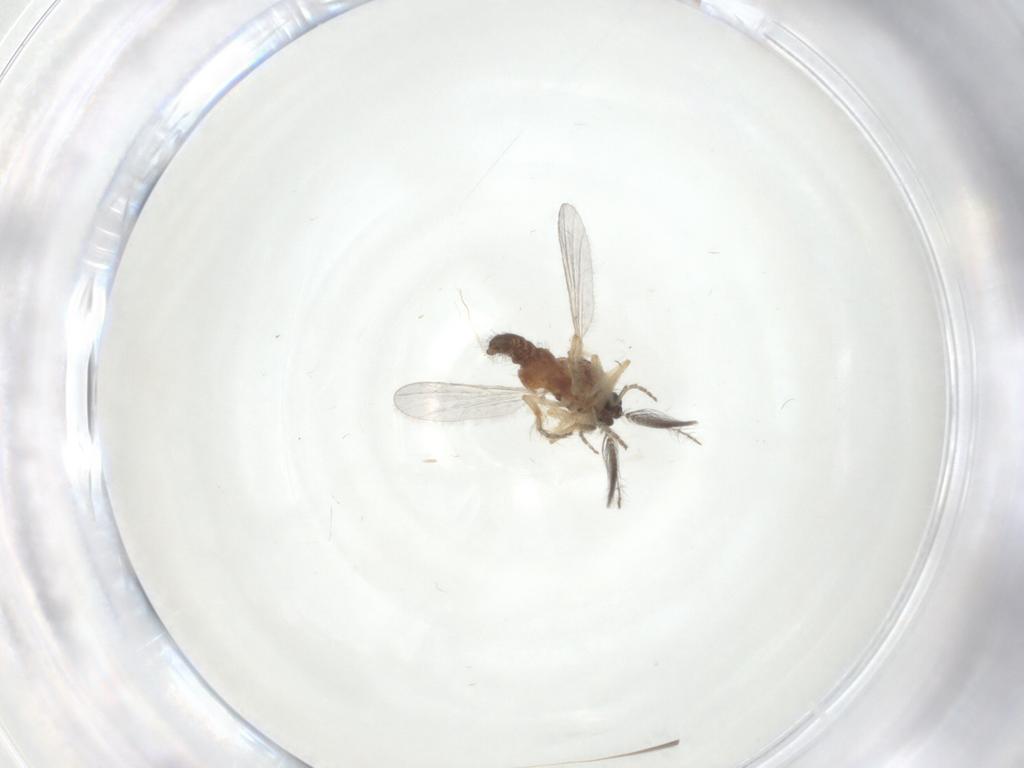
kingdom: Animalia
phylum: Arthropoda
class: Insecta
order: Diptera
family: Ceratopogonidae
